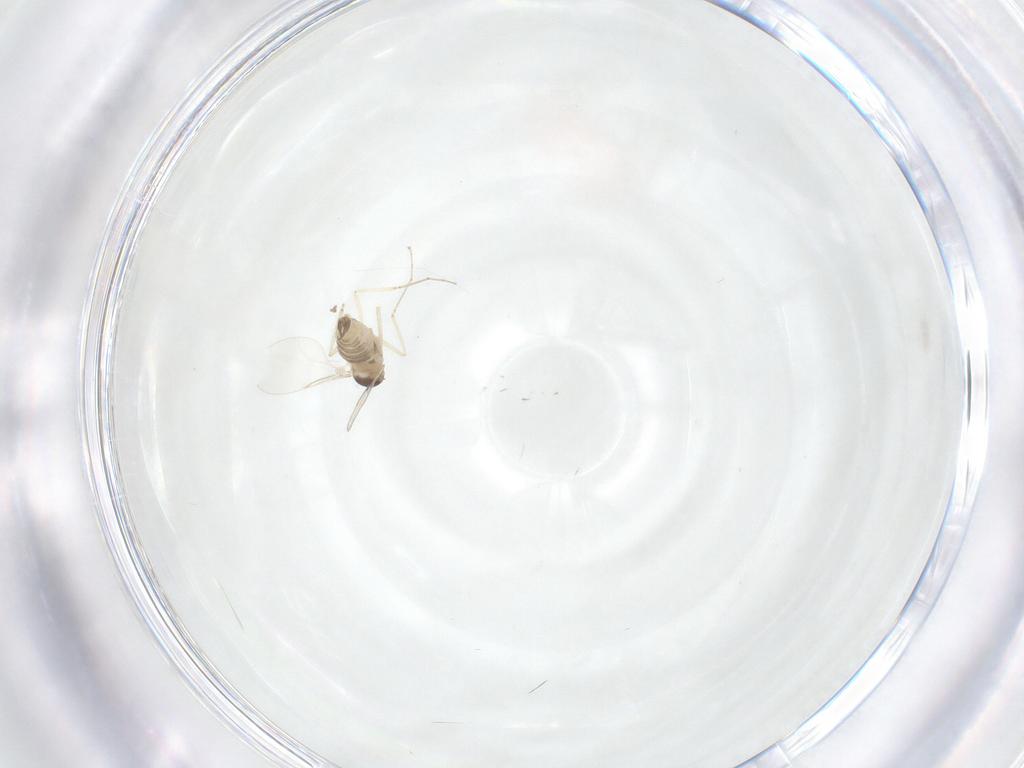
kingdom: Animalia
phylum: Arthropoda
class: Insecta
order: Diptera
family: Cecidomyiidae
